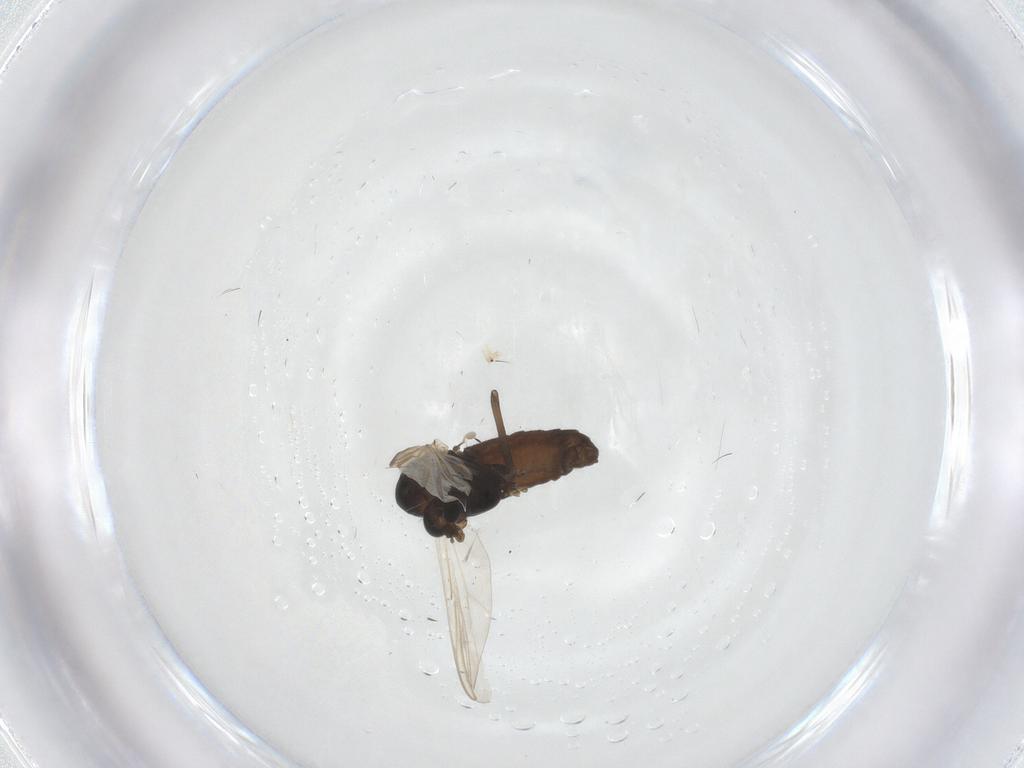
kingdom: Animalia
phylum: Arthropoda
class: Insecta
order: Diptera
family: Chironomidae
